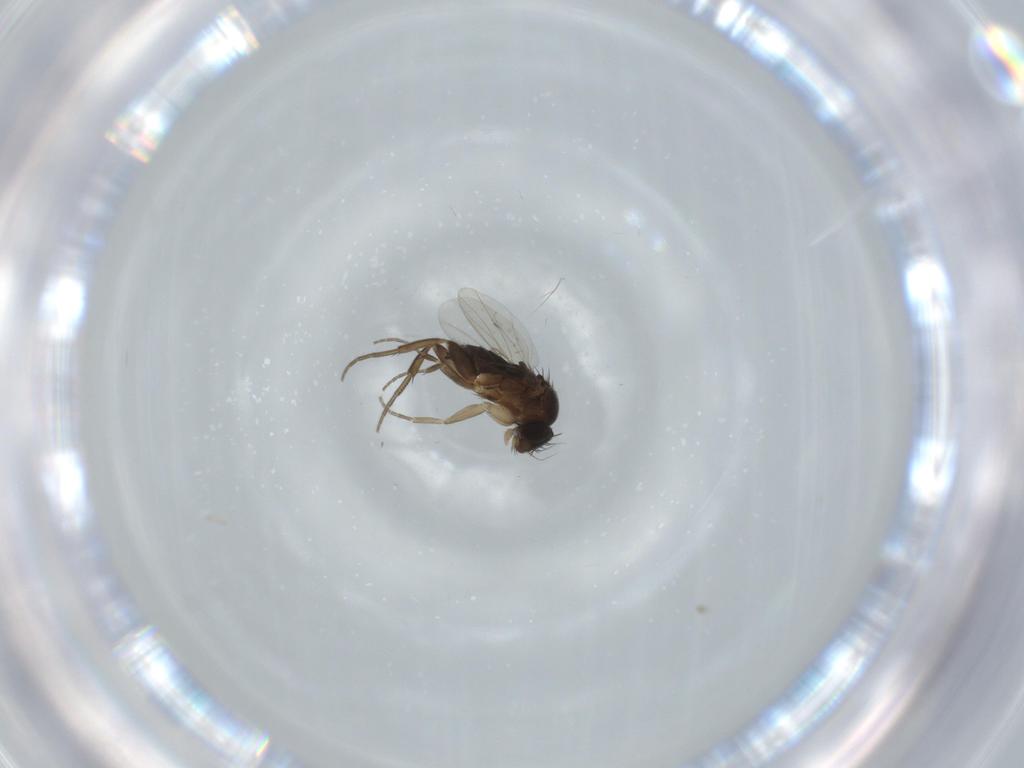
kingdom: Animalia
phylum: Arthropoda
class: Insecta
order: Diptera
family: Phoridae
